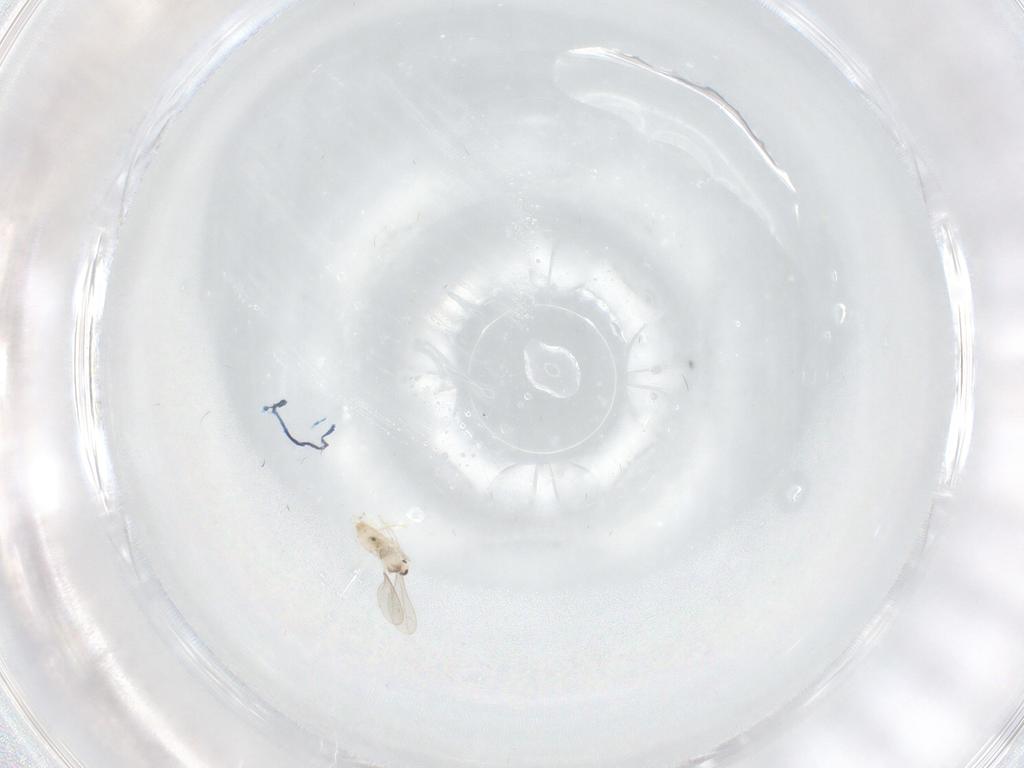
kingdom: Animalia
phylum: Arthropoda
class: Insecta
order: Diptera
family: Cecidomyiidae
